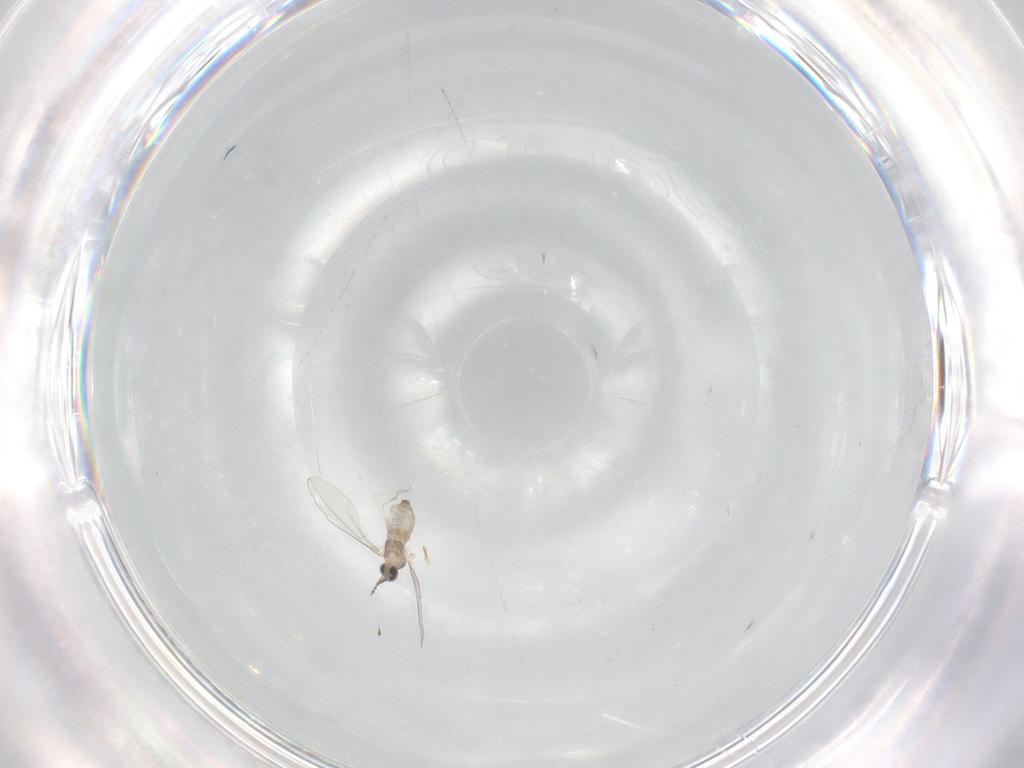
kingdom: Animalia
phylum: Arthropoda
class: Insecta
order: Diptera
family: Cecidomyiidae
